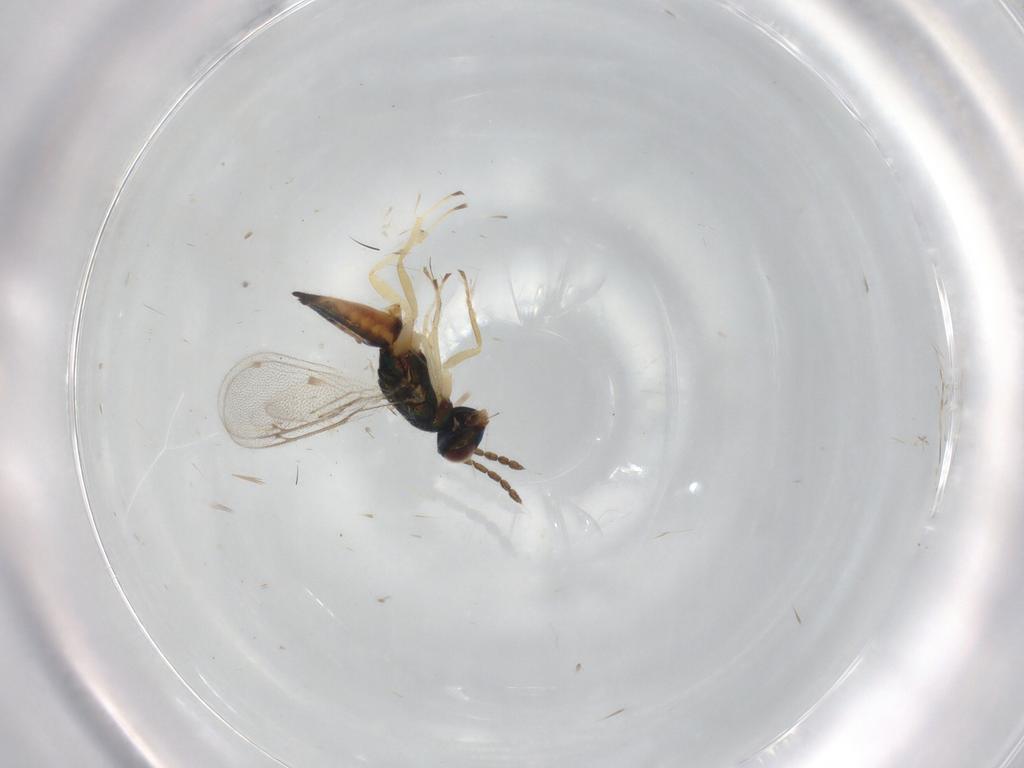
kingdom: Animalia
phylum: Arthropoda
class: Insecta
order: Hymenoptera
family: Eulophidae
